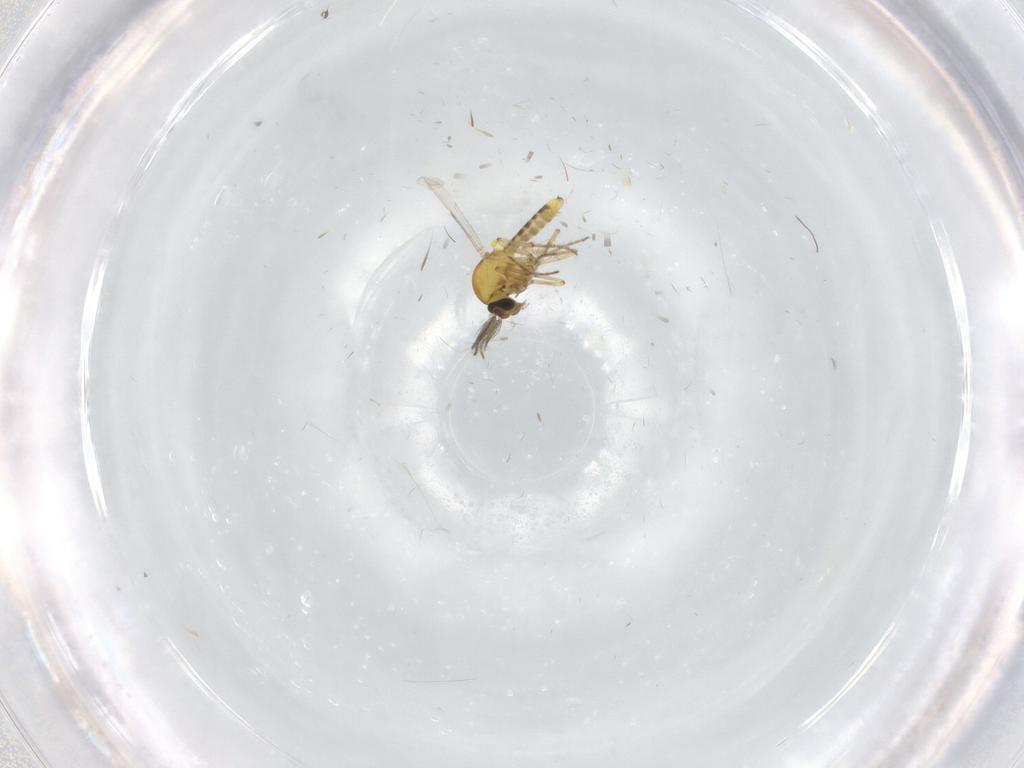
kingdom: Animalia
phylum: Arthropoda
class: Insecta
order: Diptera
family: Ceratopogonidae
